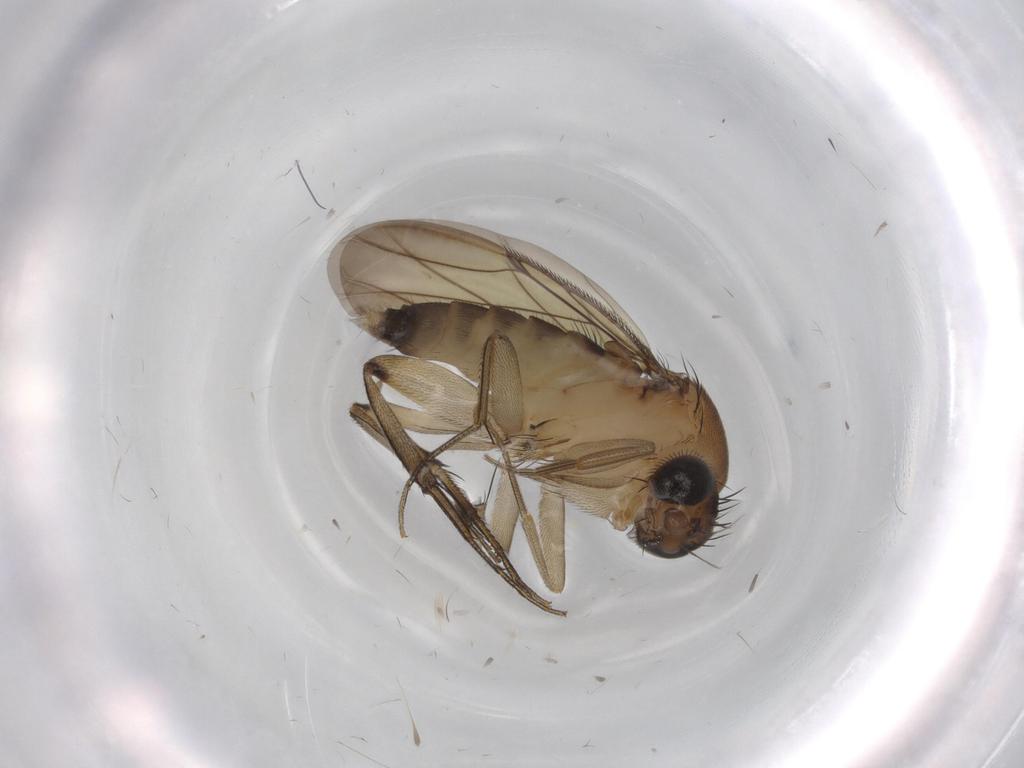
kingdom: Animalia
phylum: Arthropoda
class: Insecta
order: Diptera
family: Phoridae
